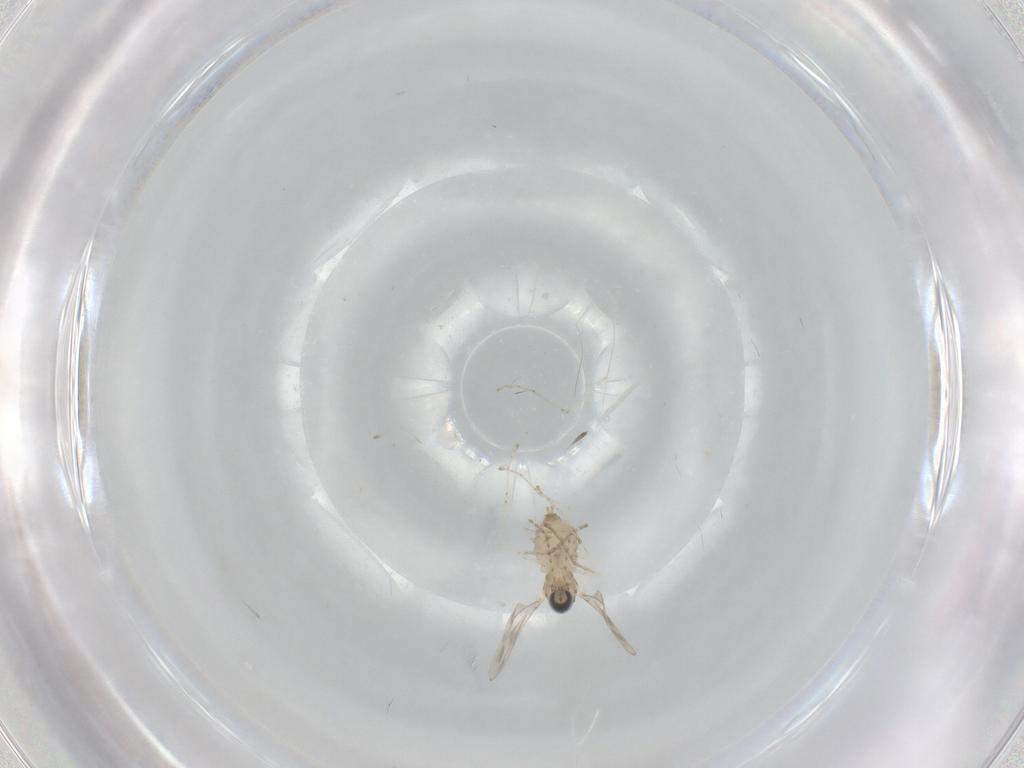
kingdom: Animalia
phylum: Arthropoda
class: Insecta
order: Diptera
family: Cecidomyiidae
